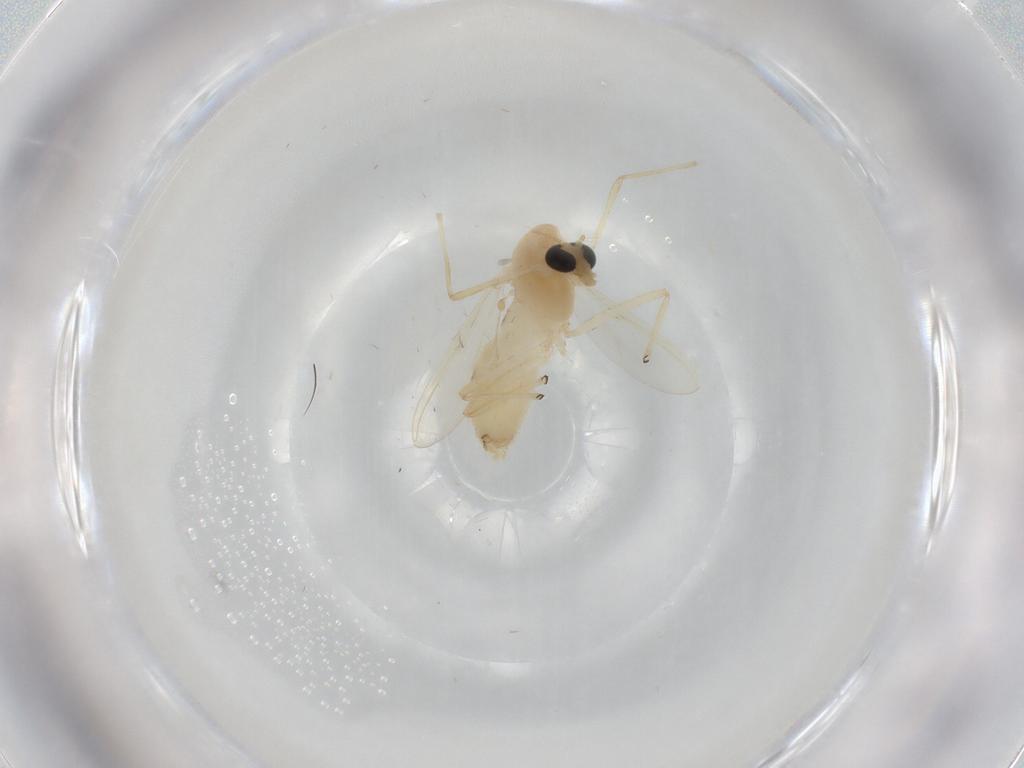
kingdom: Animalia
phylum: Arthropoda
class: Insecta
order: Diptera
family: Chironomidae
